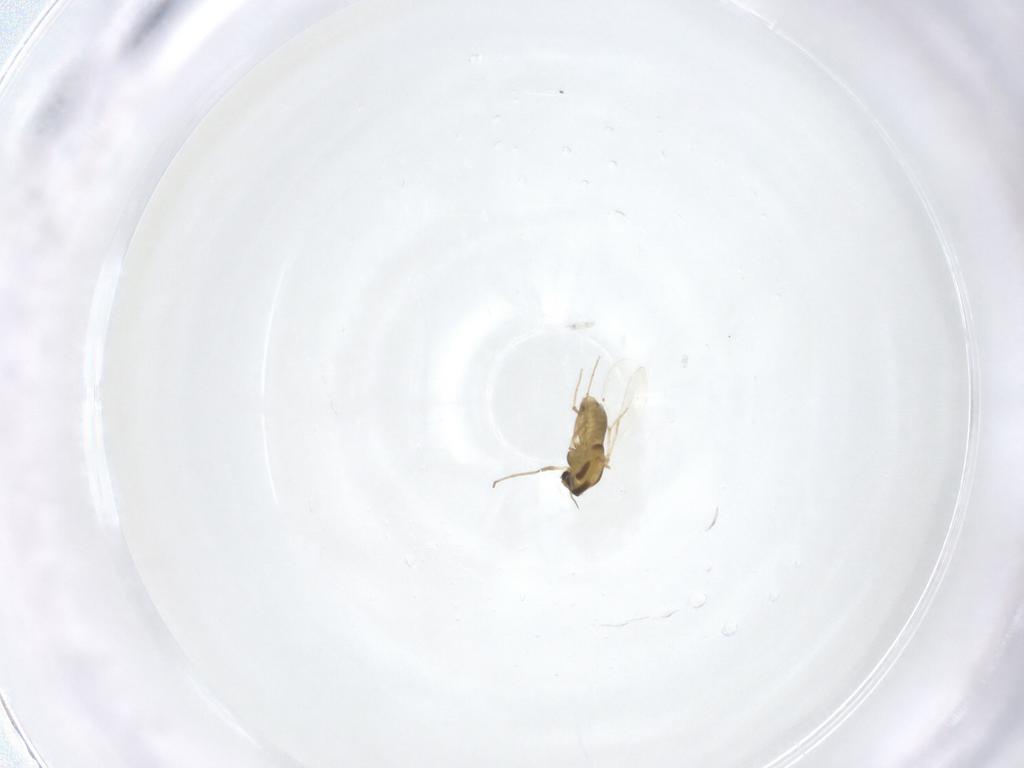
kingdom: Animalia
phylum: Arthropoda
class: Insecta
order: Diptera
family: Chironomidae
